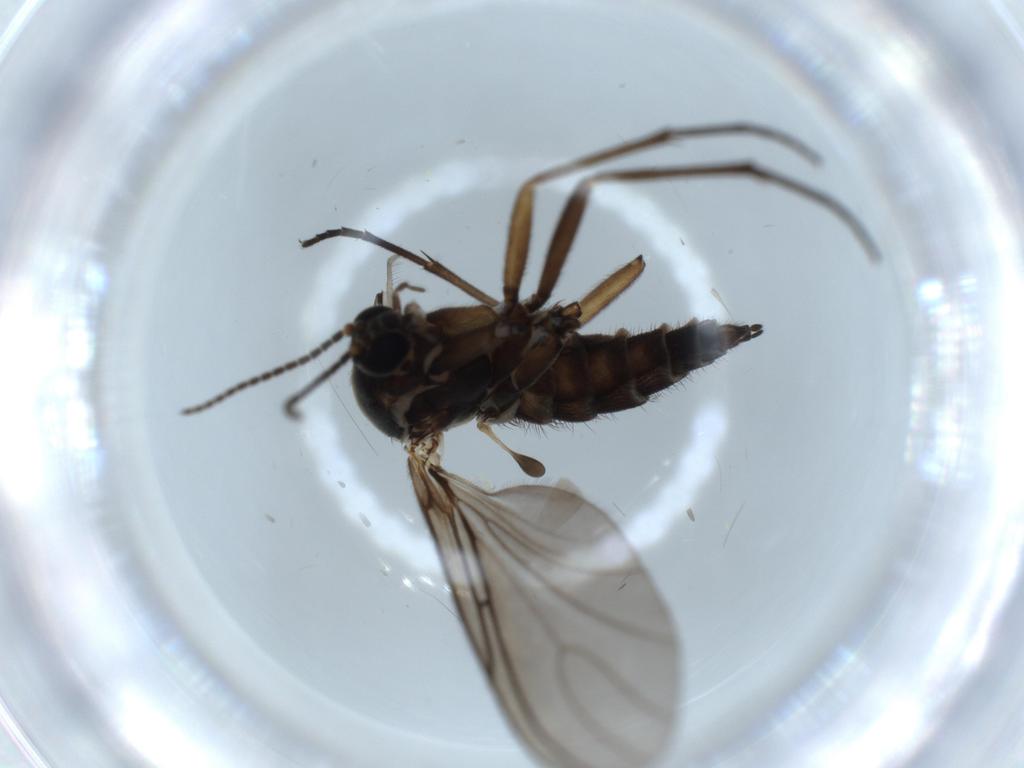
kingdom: Animalia
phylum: Arthropoda
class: Insecta
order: Diptera
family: Sciaridae
